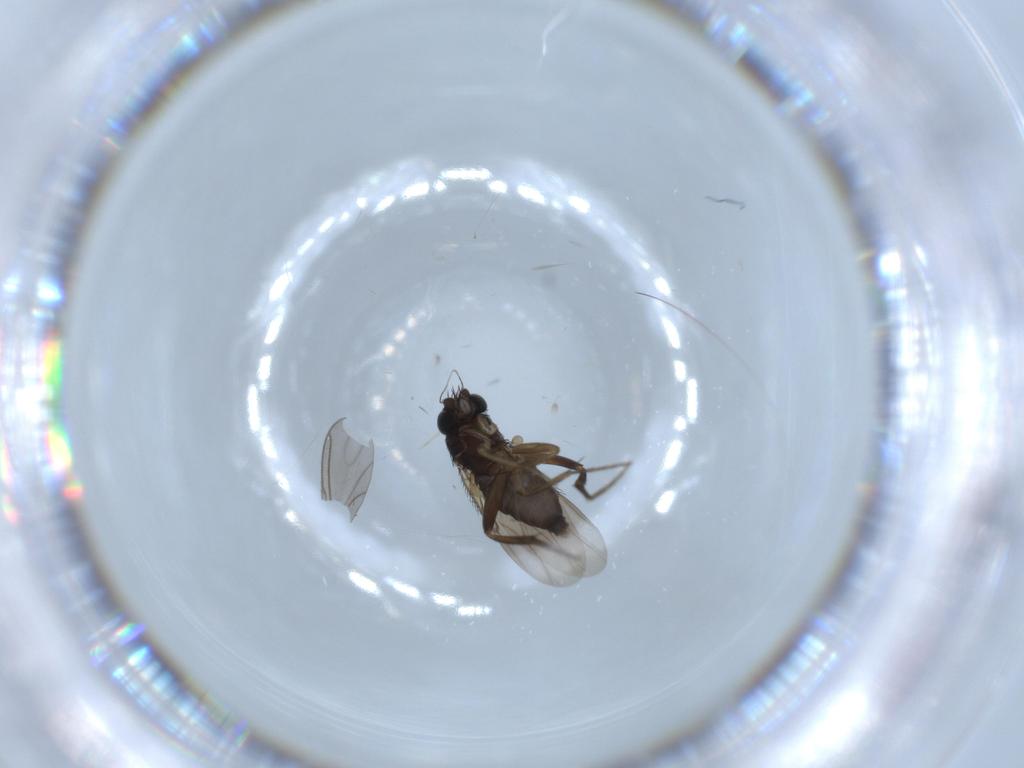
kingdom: Animalia
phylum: Arthropoda
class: Insecta
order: Diptera
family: Phoridae
